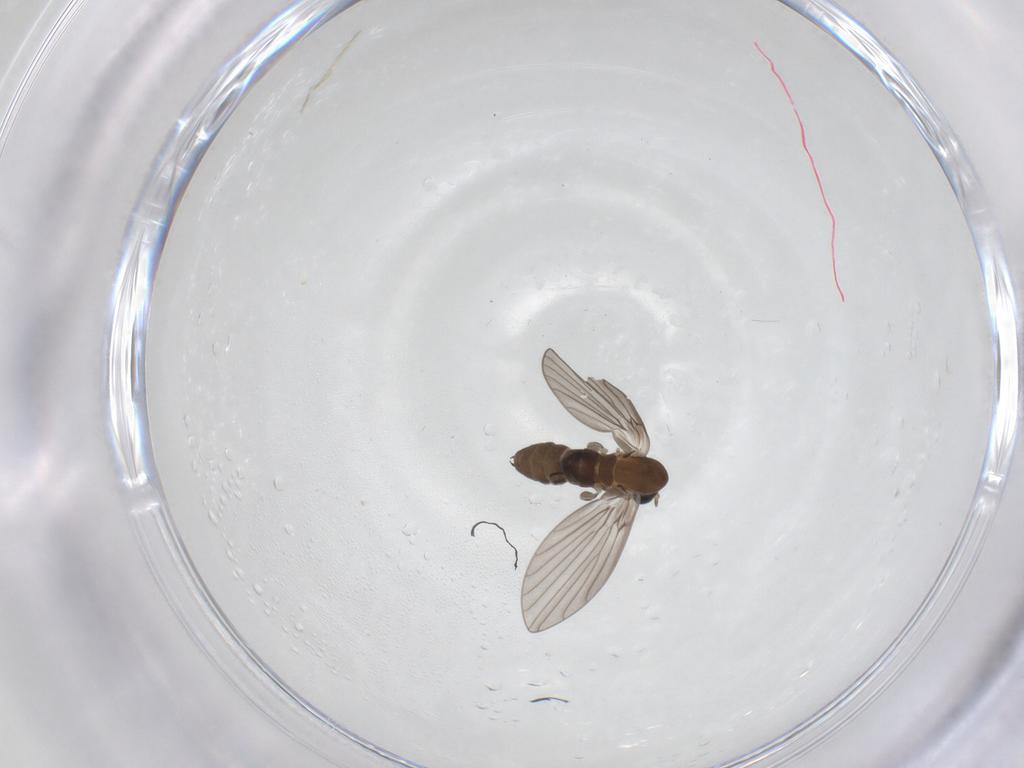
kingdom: Animalia
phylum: Arthropoda
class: Insecta
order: Diptera
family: Psychodidae
